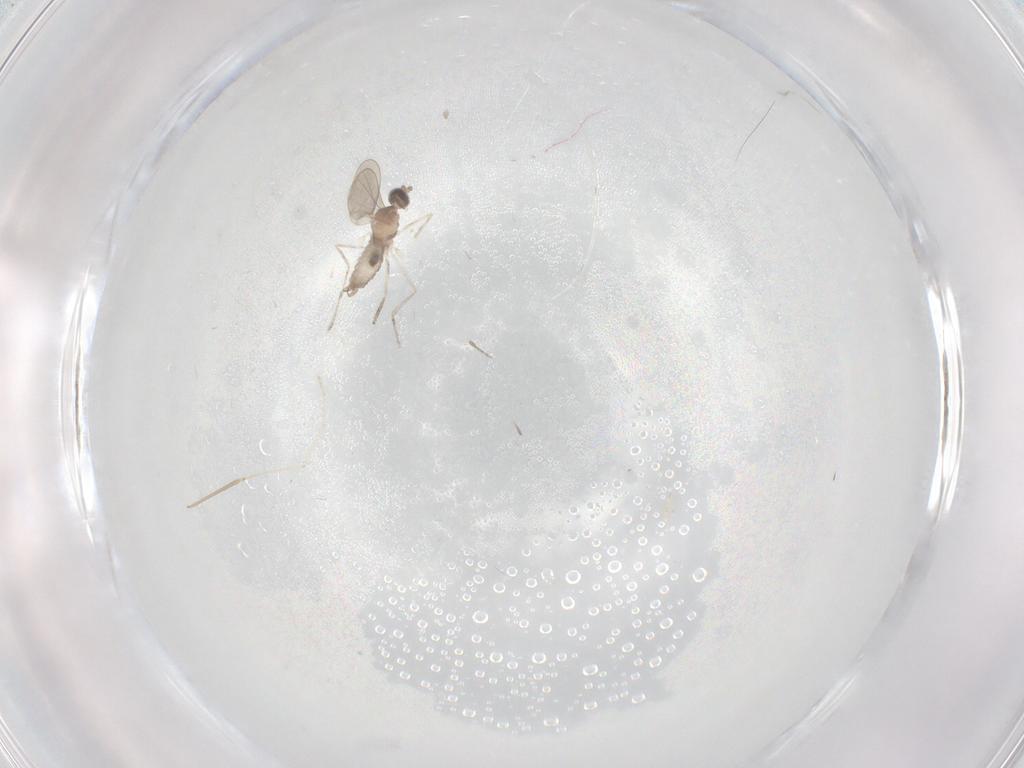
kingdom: Animalia
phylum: Arthropoda
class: Insecta
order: Diptera
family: Cecidomyiidae
